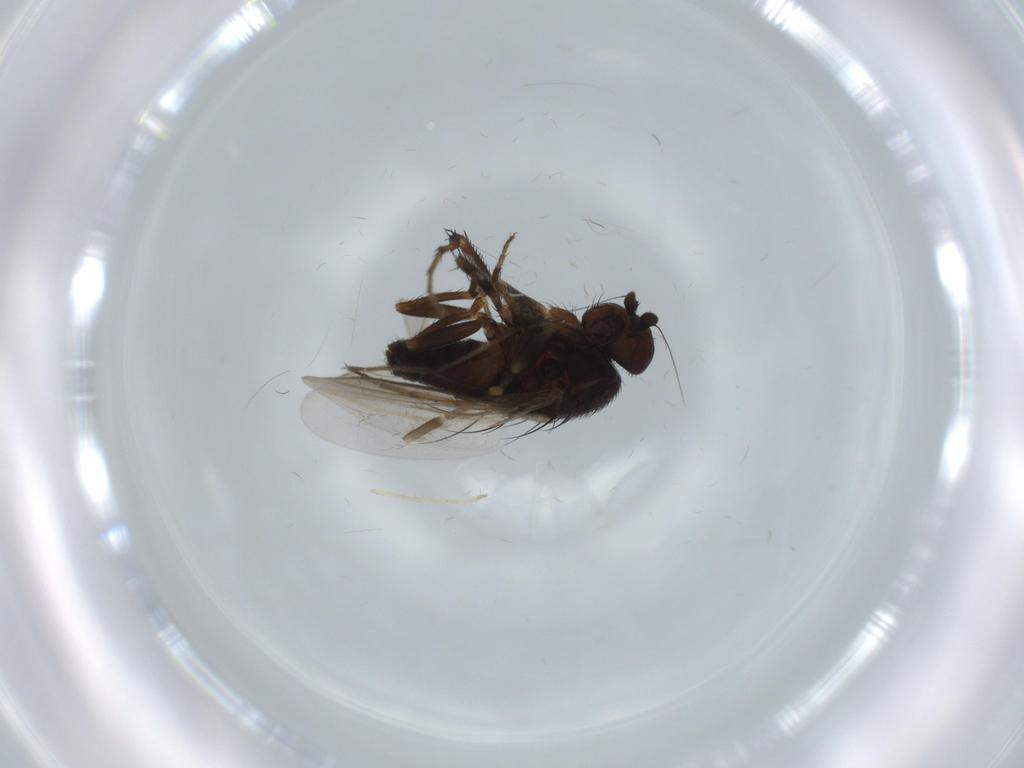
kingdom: Animalia
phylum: Arthropoda
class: Insecta
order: Diptera
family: Sphaeroceridae
